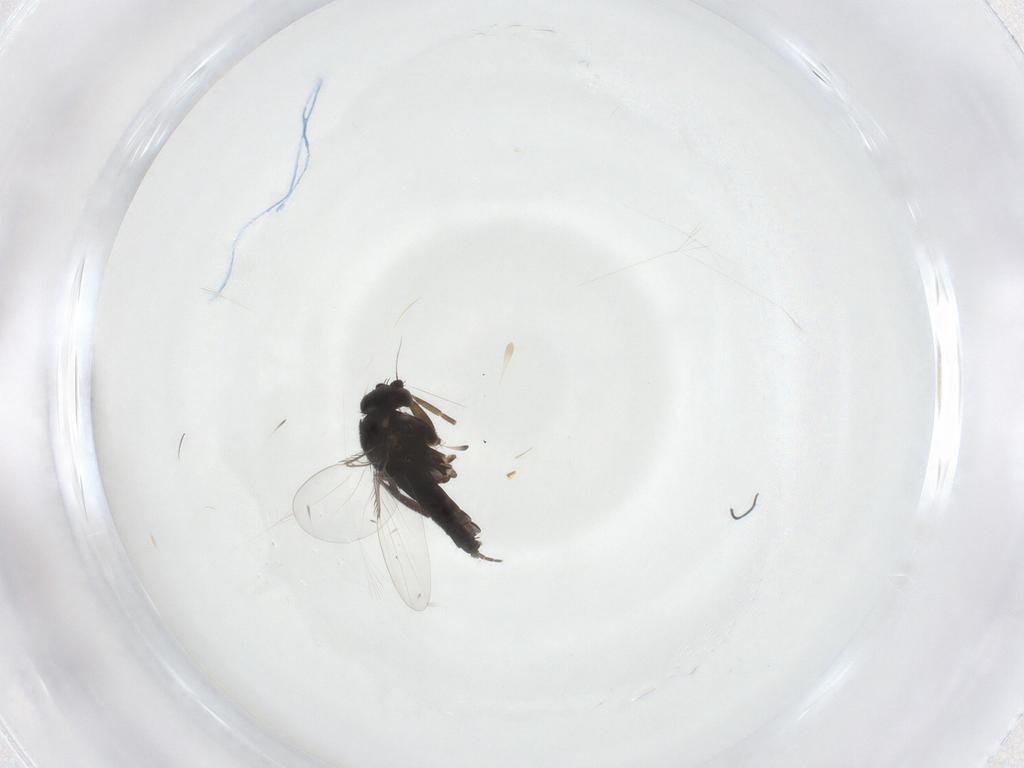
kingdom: Animalia
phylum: Arthropoda
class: Insecta
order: Diptera
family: Phoridae
